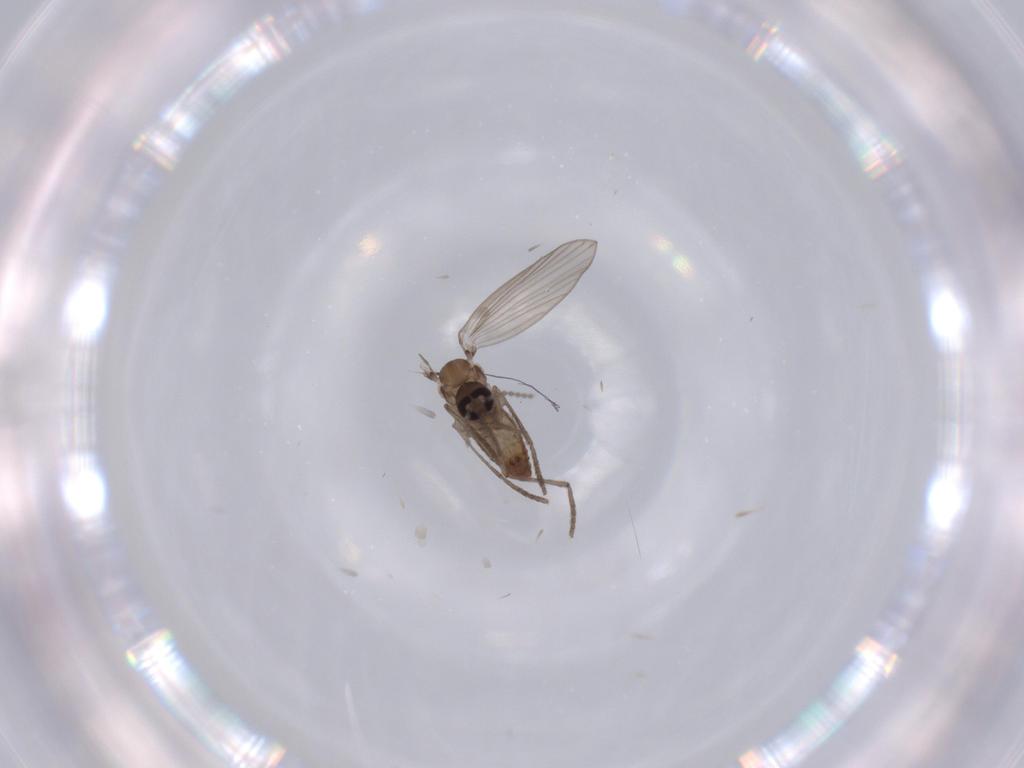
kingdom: Animalia
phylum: Arthropoda
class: Insecta
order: Diptera
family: Psychodidae
